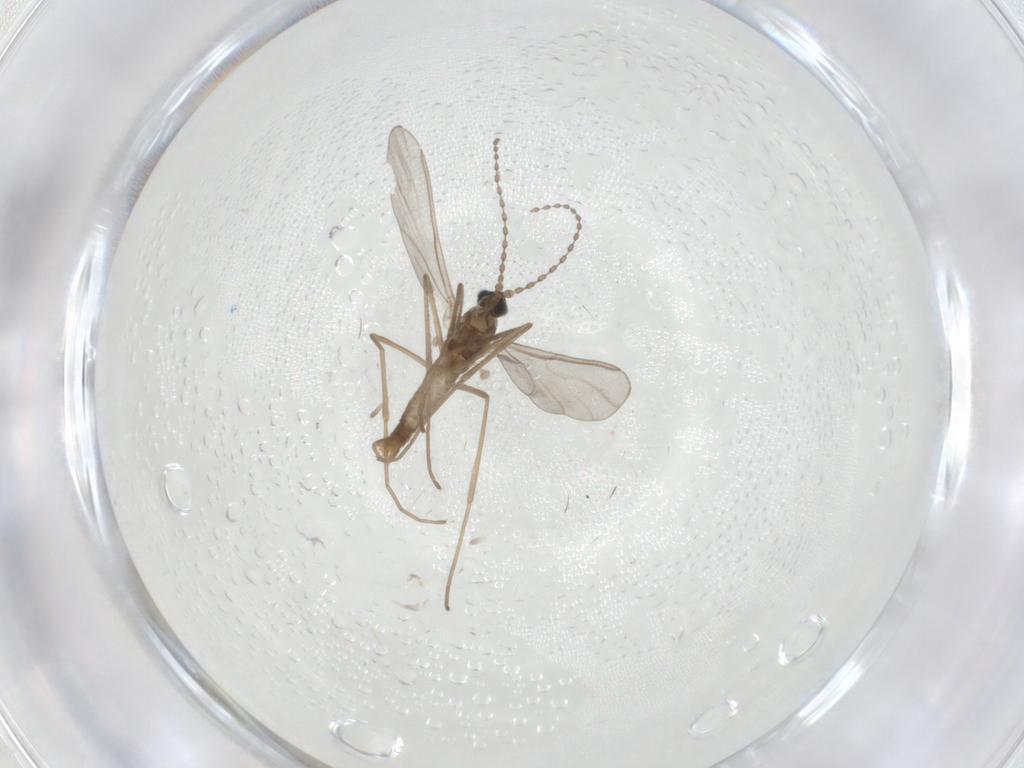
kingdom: Animalia
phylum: Arthropoda
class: Insecta
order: Diptera
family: Cecidomyiidae
